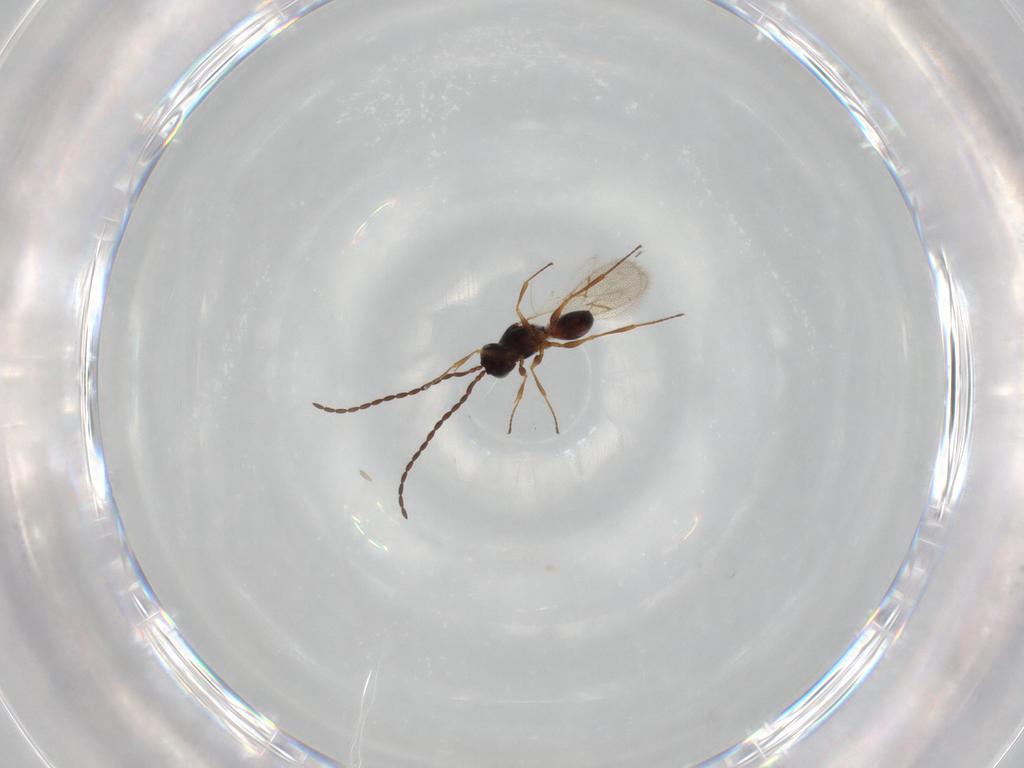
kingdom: Animalia
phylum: Arthropoda
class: Insecta
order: Hymenoptera
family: Figitidae
